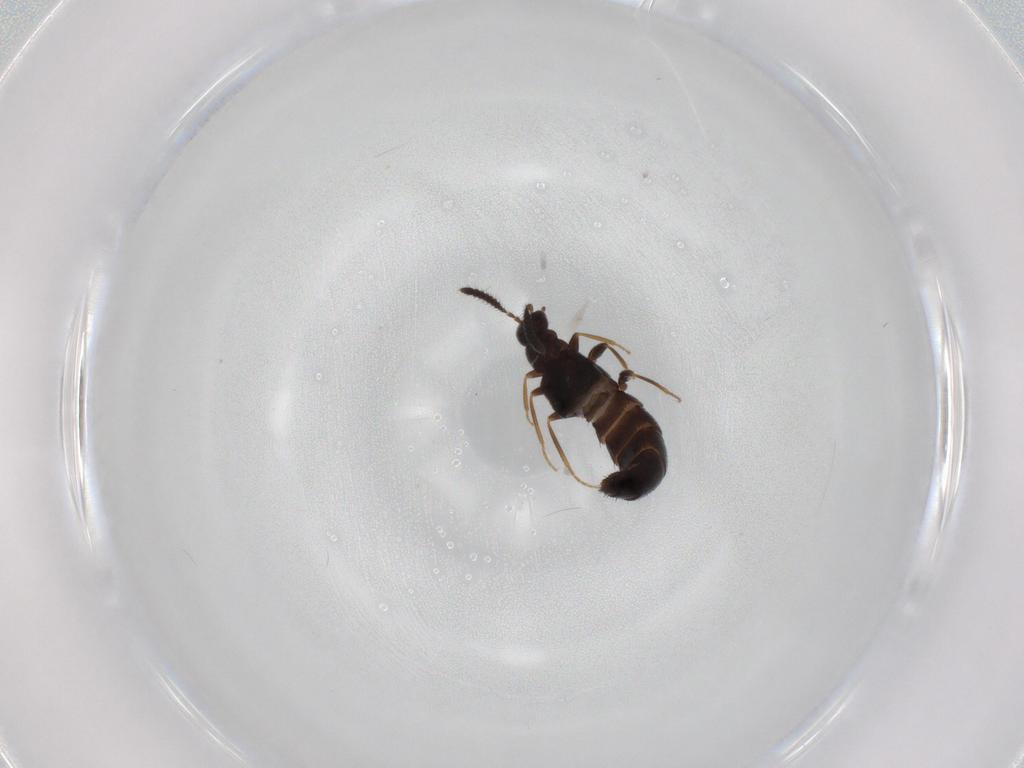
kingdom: Animalia
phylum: Arthropoda
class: Insecta
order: Coleoptera
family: Staphylinidae
